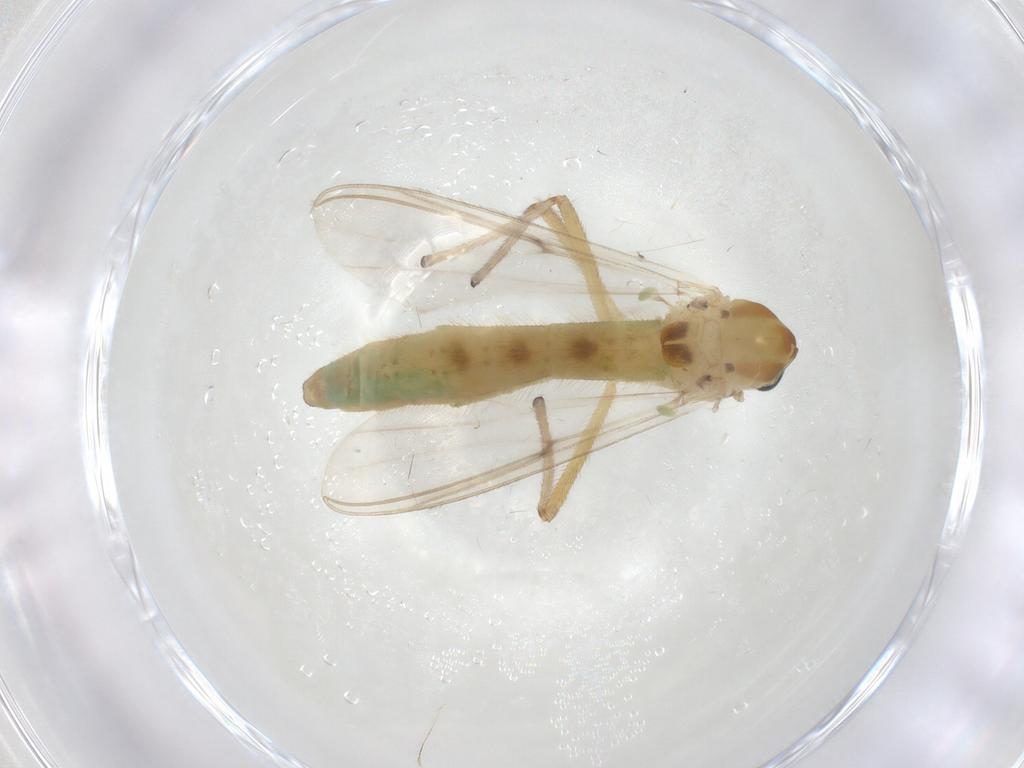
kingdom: Animalia
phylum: Arthropoda
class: Insecta
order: Diptera
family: Chironomidae
